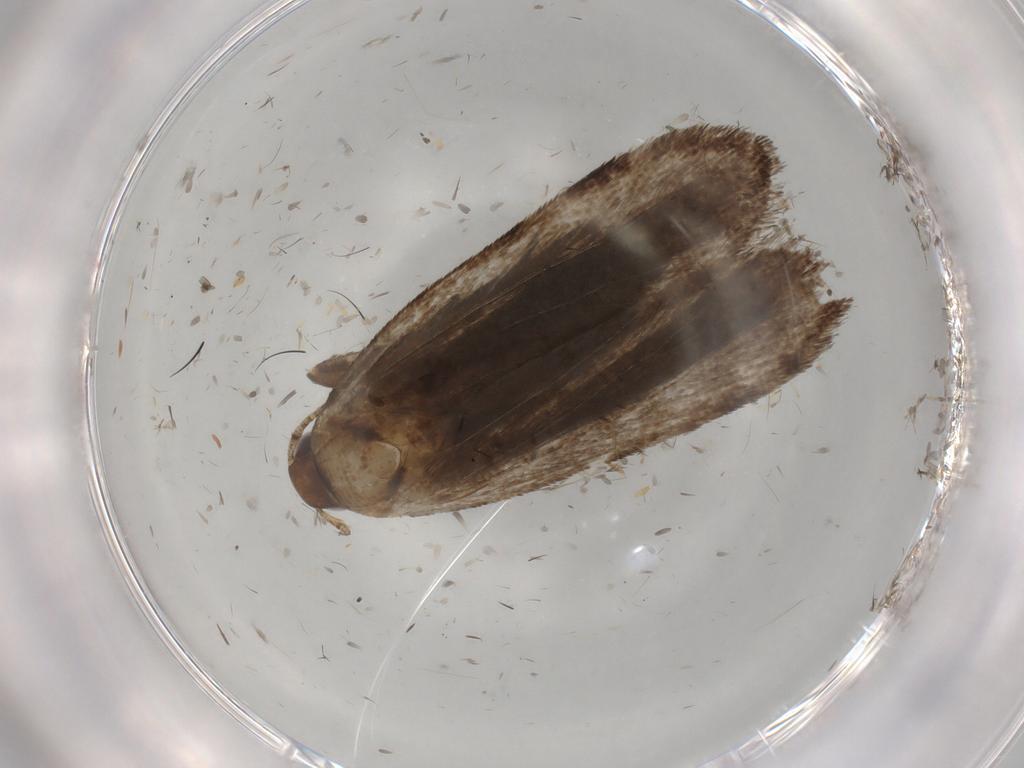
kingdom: Animalia
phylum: Arthropoda
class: Insecta
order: Lepidoptera
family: Gelechiidae
